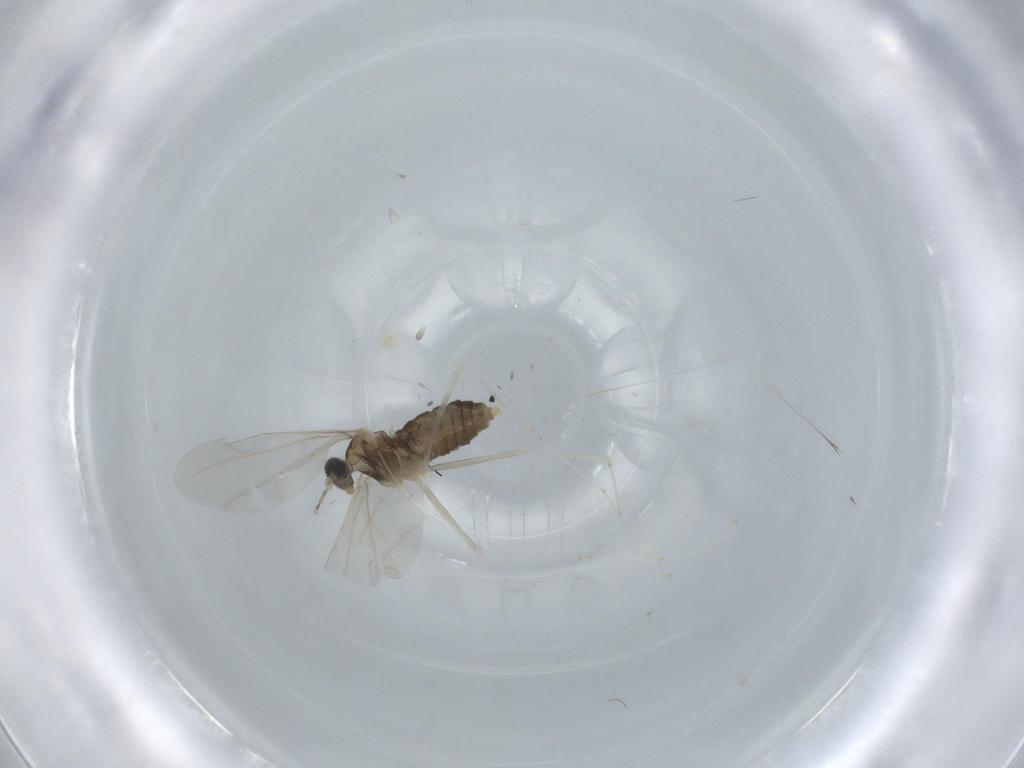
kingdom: Animalia
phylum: Arthropoda
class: Insecta
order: Diptera
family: Cecidomyiidae
